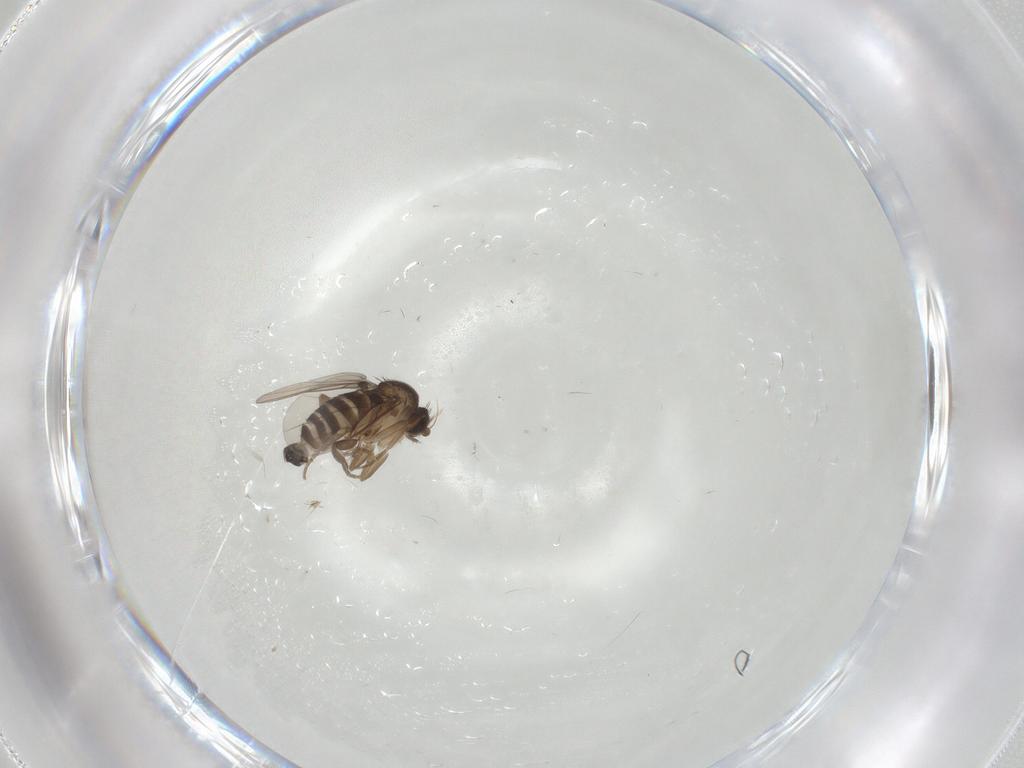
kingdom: Animalia
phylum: Arthropoda
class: Insecta
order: Diptera
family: Phoridae
